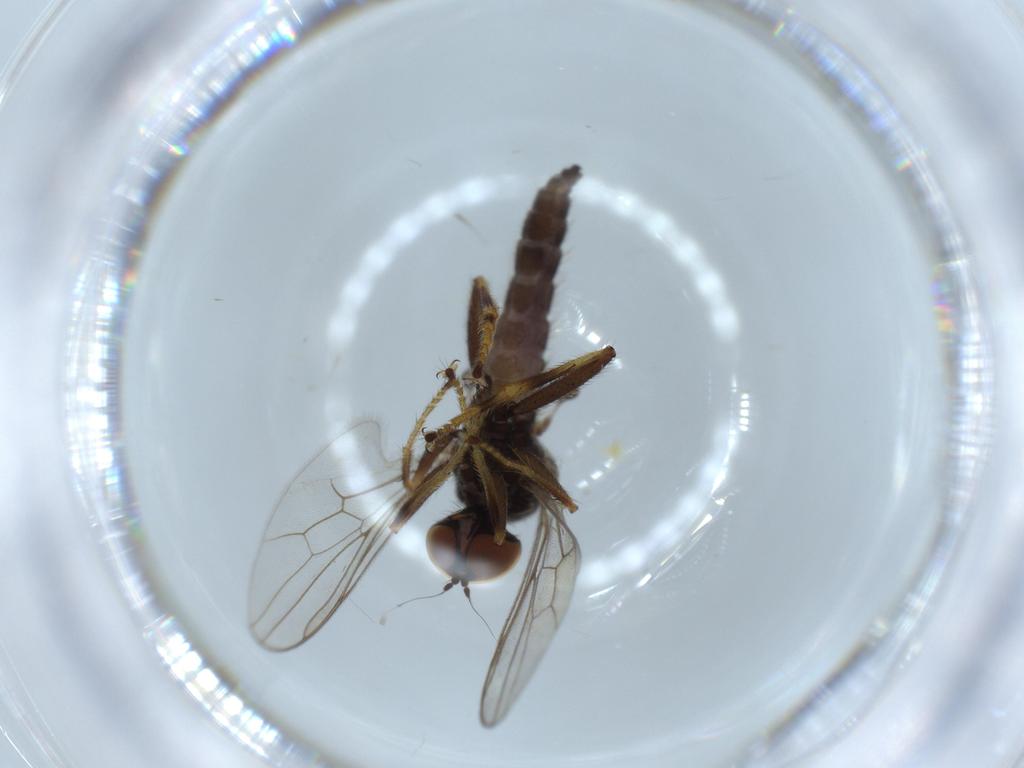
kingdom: Animalia
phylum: Arthropoda
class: Insecta
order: Diptera
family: Hybotidae
